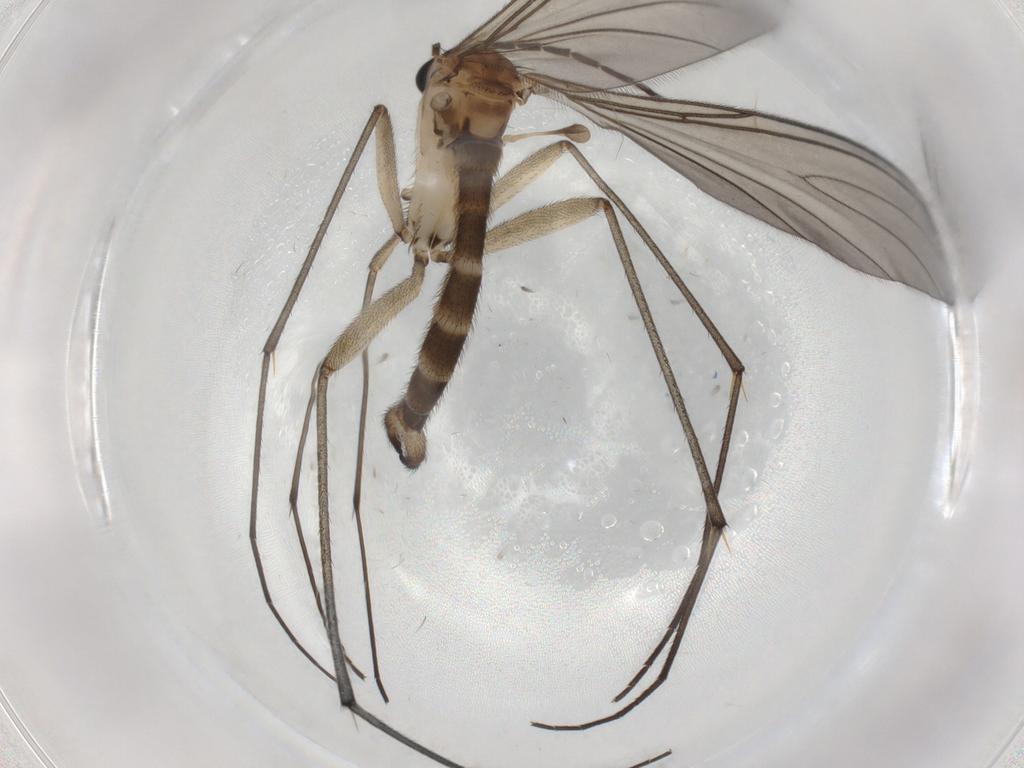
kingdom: Animalia
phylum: Arthropoda
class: Insecta
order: Diptera
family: Sciaridae
